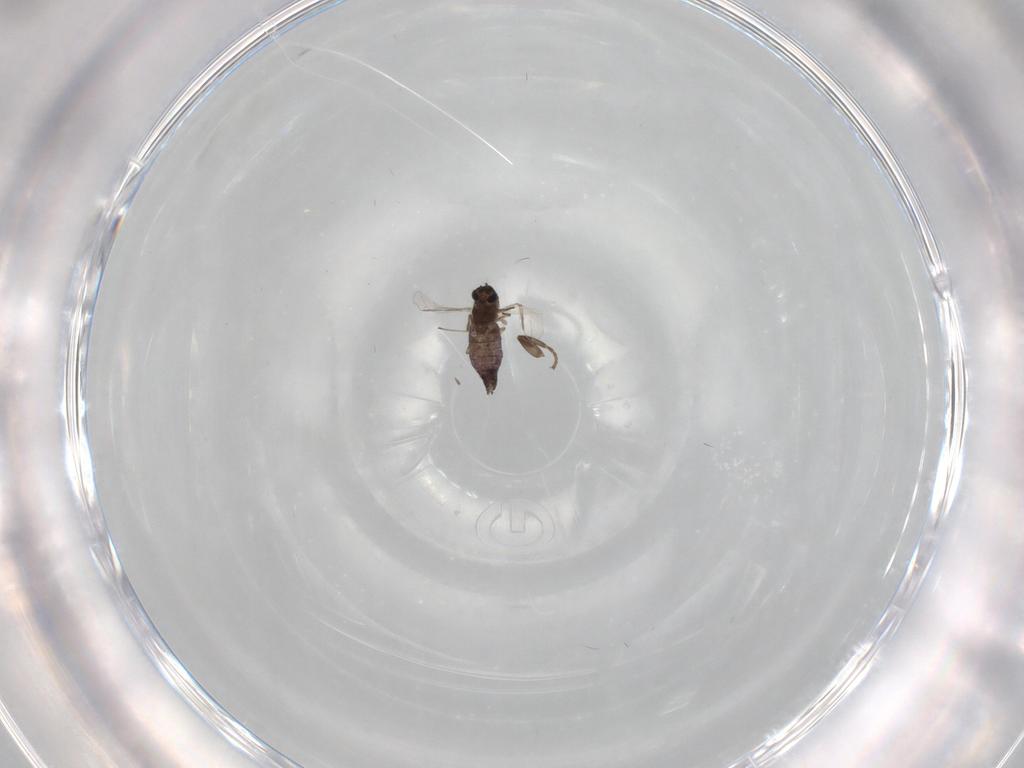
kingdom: Animalia
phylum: Arthropoda
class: Insecta
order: Diptera
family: Chironomidae
